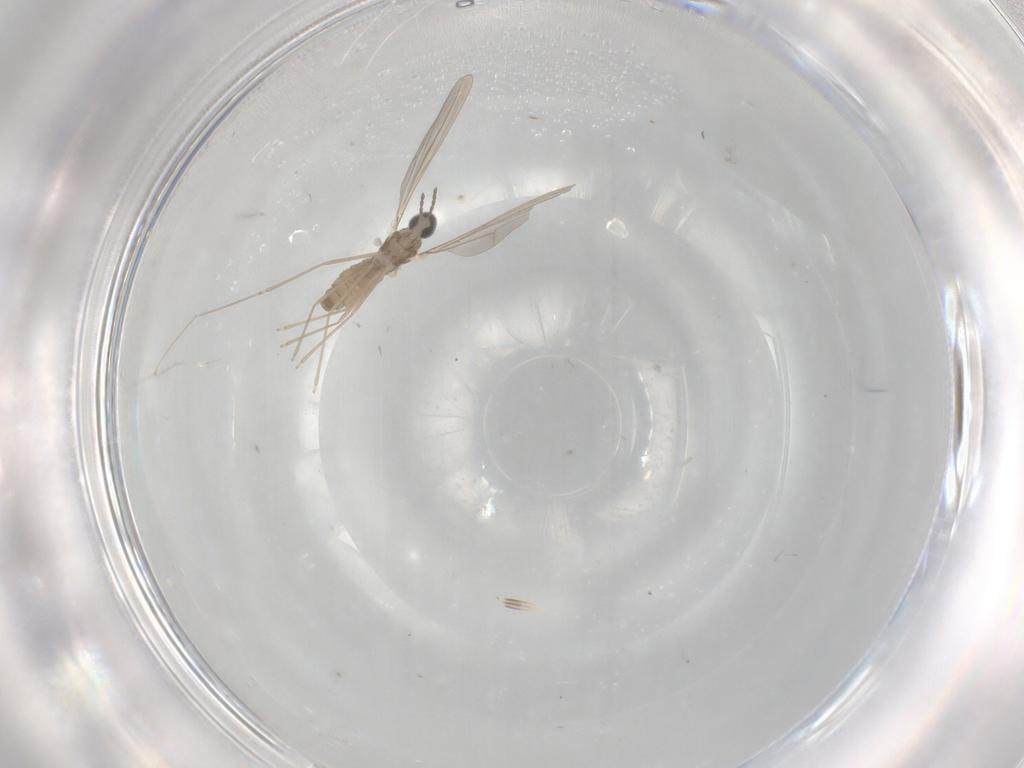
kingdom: Animalia
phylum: Arthropoda
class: Insecta
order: Diptera
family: Syrphidae
